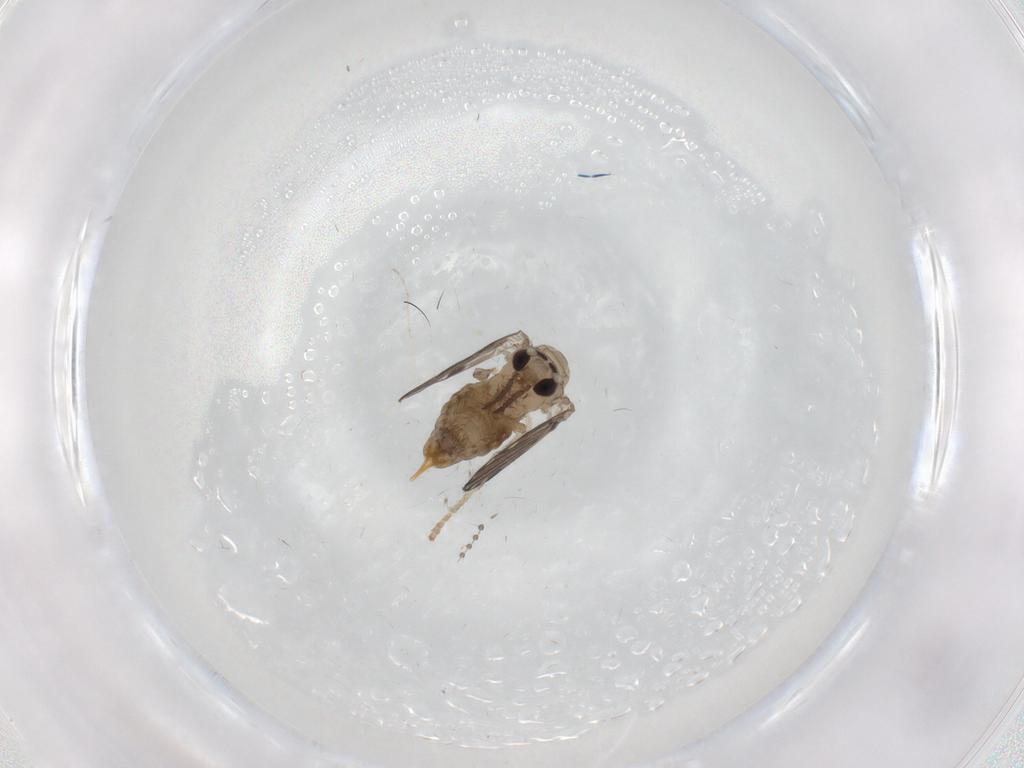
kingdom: Animalia
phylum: Arthropoda
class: Insecta
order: Diptera
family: Psychodidae
